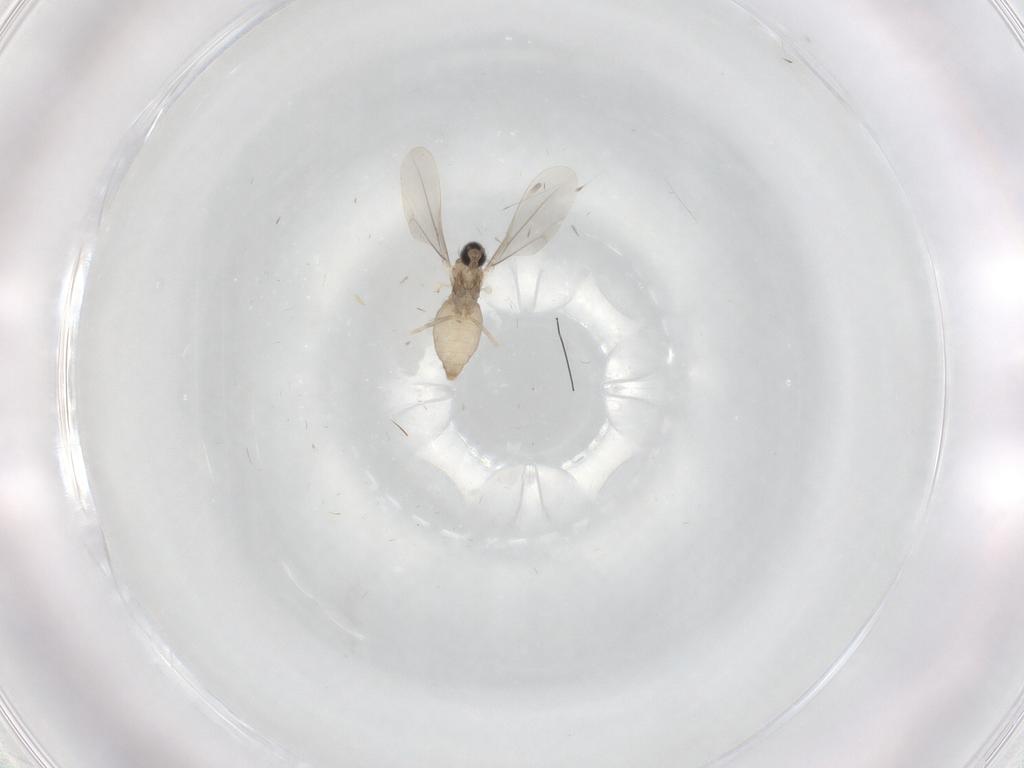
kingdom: Animalia
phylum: Arthropoda
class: Insecta
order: Diptera
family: Cecidomyiidae
